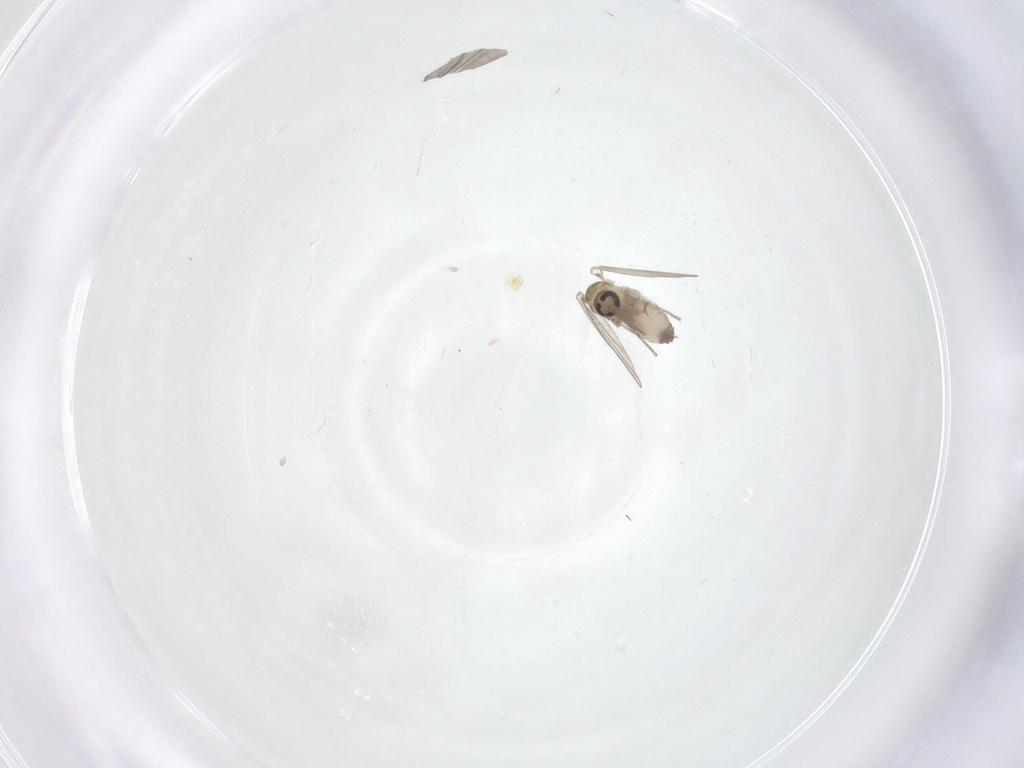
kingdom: Animalia
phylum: Arthropoda
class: Insecta
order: Diptera
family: Psychodidae
